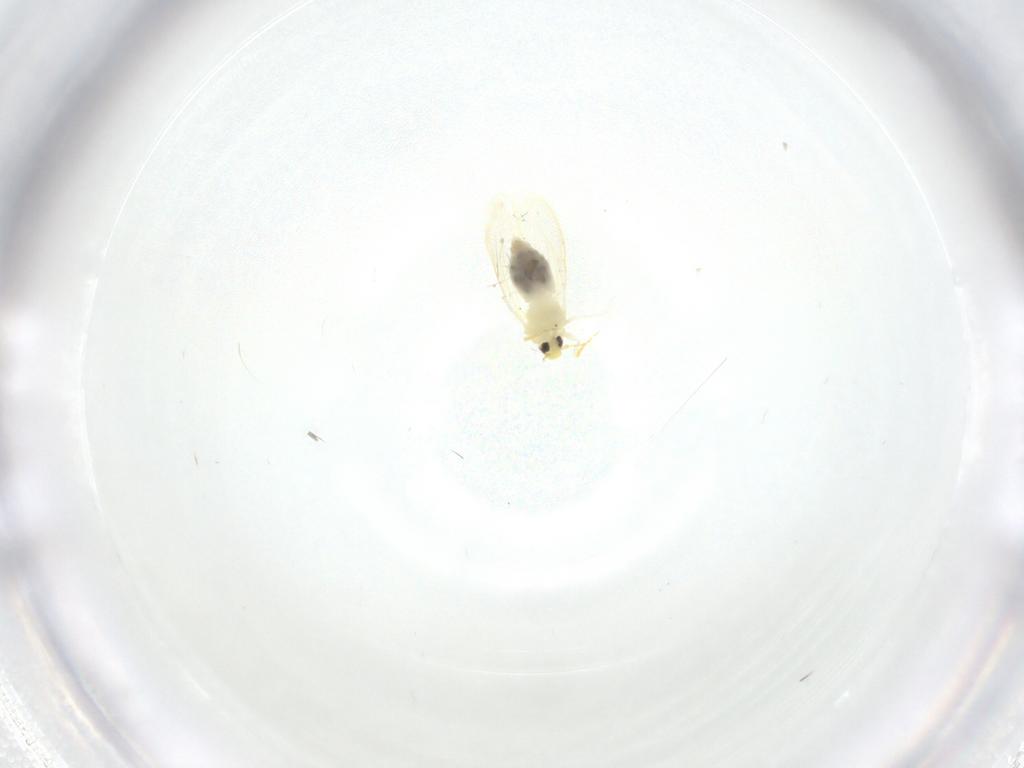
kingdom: Animalia
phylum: Arthropoda
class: Insecta
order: Hemiptera
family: Aleyrodidae
